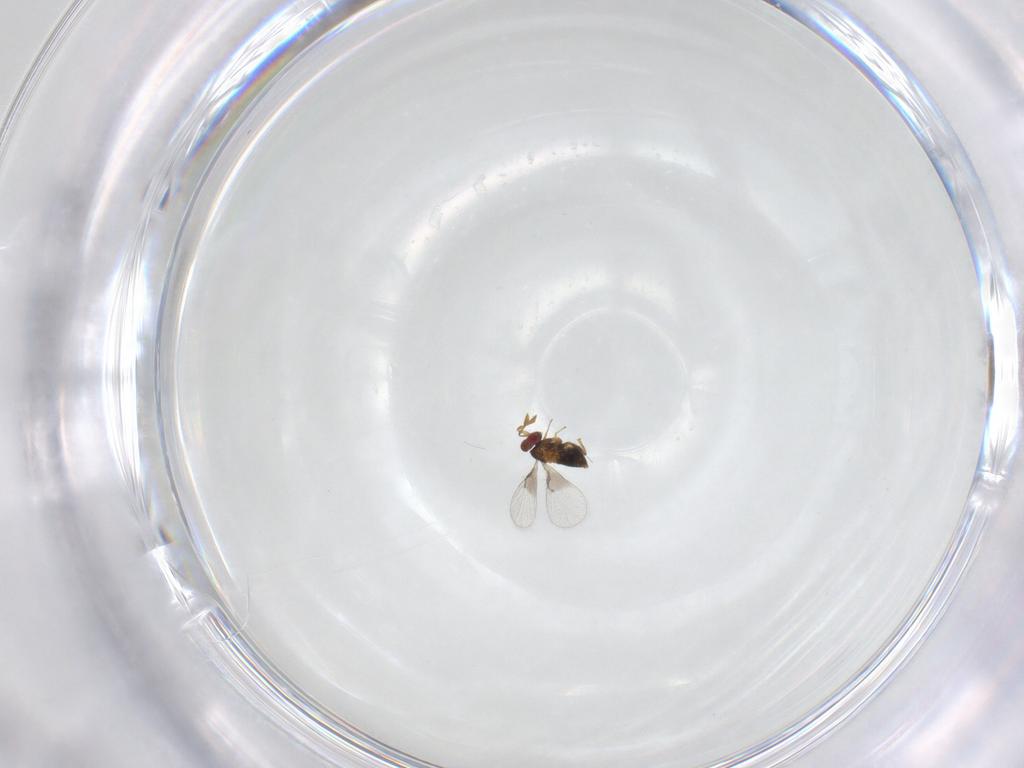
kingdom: Animalia
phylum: Arthropoda
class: Insecta
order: Hymenoptera
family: Trichogrammatidae
